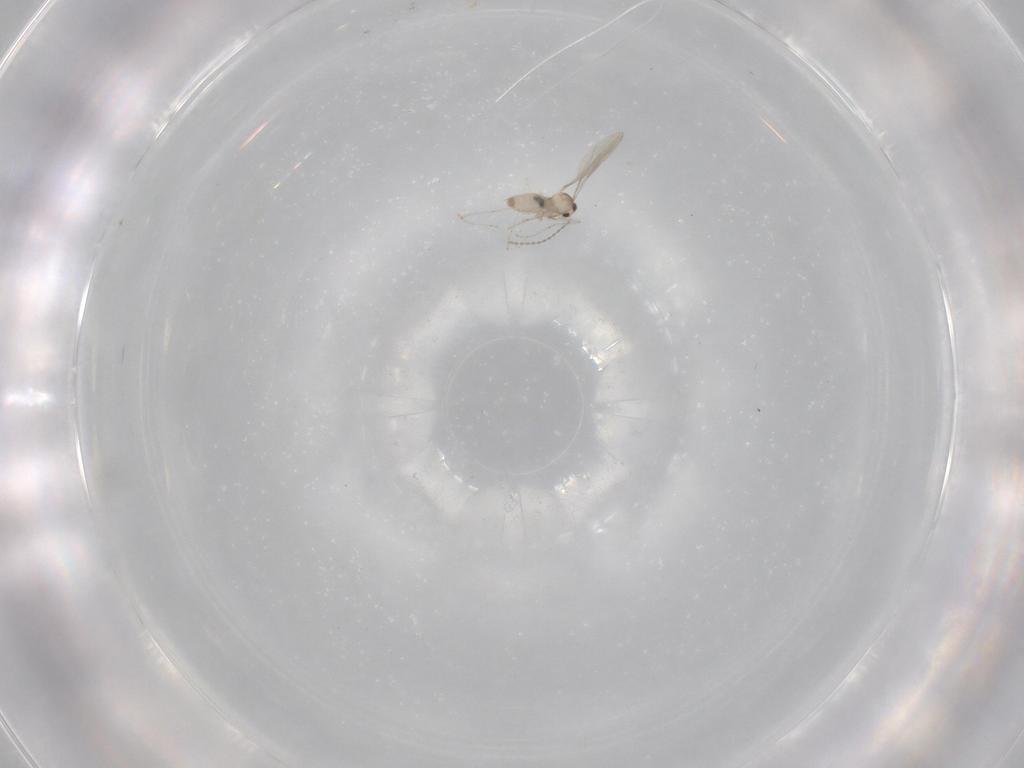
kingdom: Animalia
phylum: Arthropoda
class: Insecta
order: Diptera
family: Cecidomyiidae
